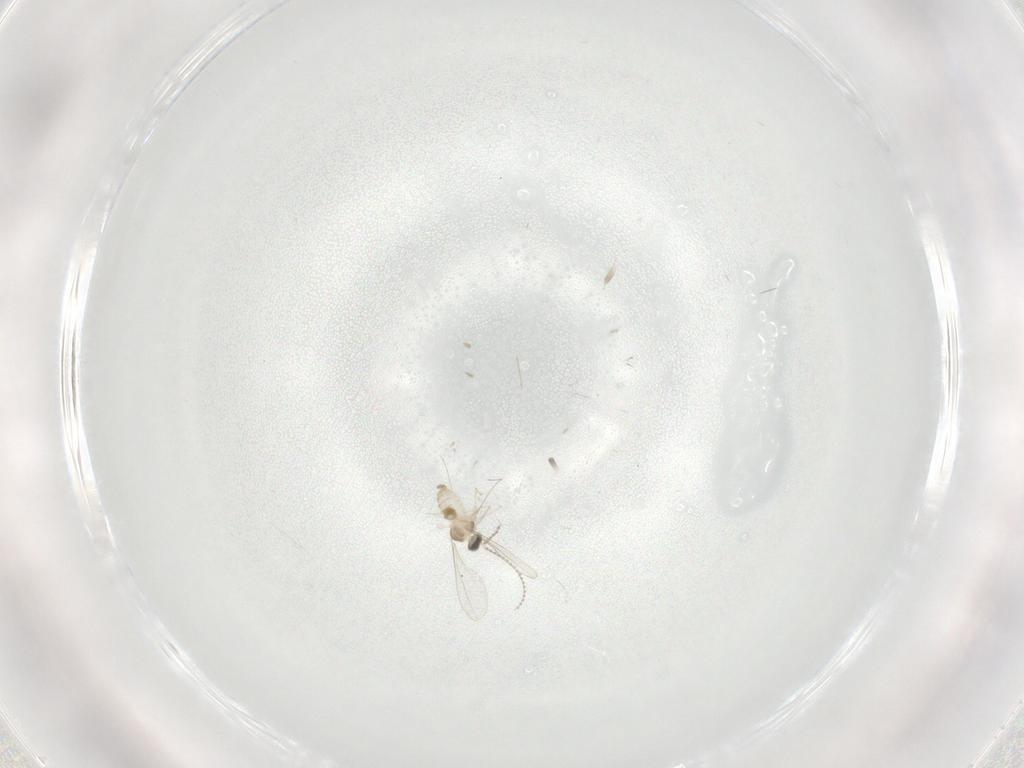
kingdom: Animalia
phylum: Arthropoda
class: Insecta
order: Diptera
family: Cecidomyiidae
